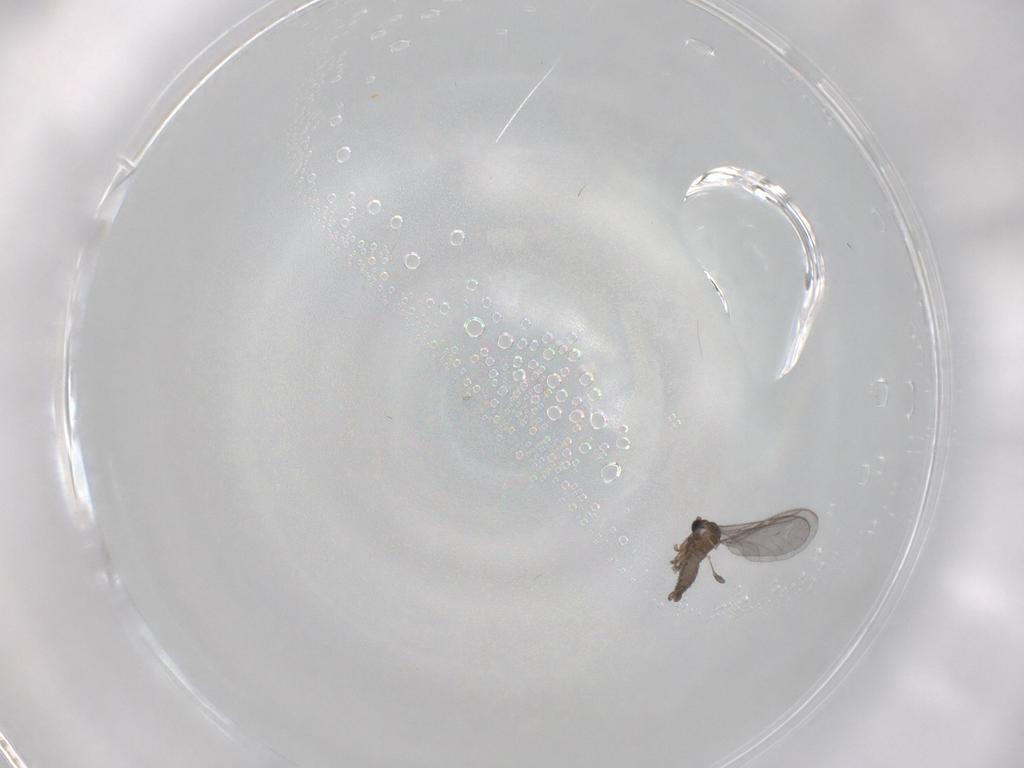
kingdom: Animalia
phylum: Arthropoda
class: Insecta
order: Diptera
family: Sciaridae
